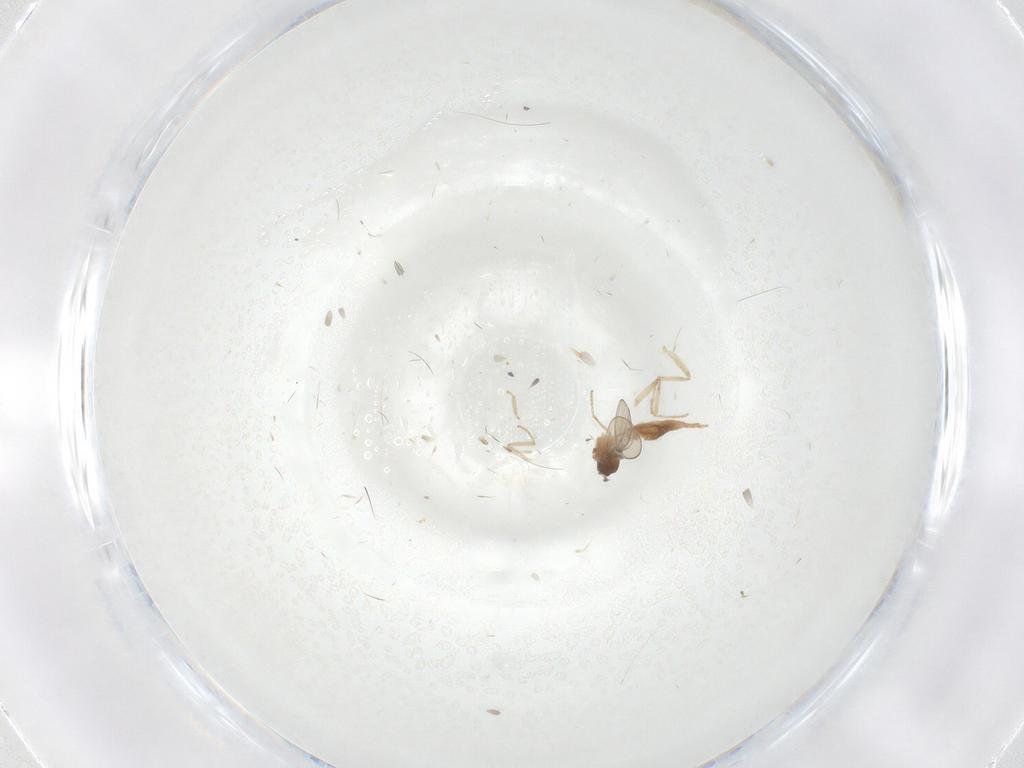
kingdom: Animalia
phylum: Arthropoda
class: Insecta
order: Diptera
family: Cecidomyiidae
